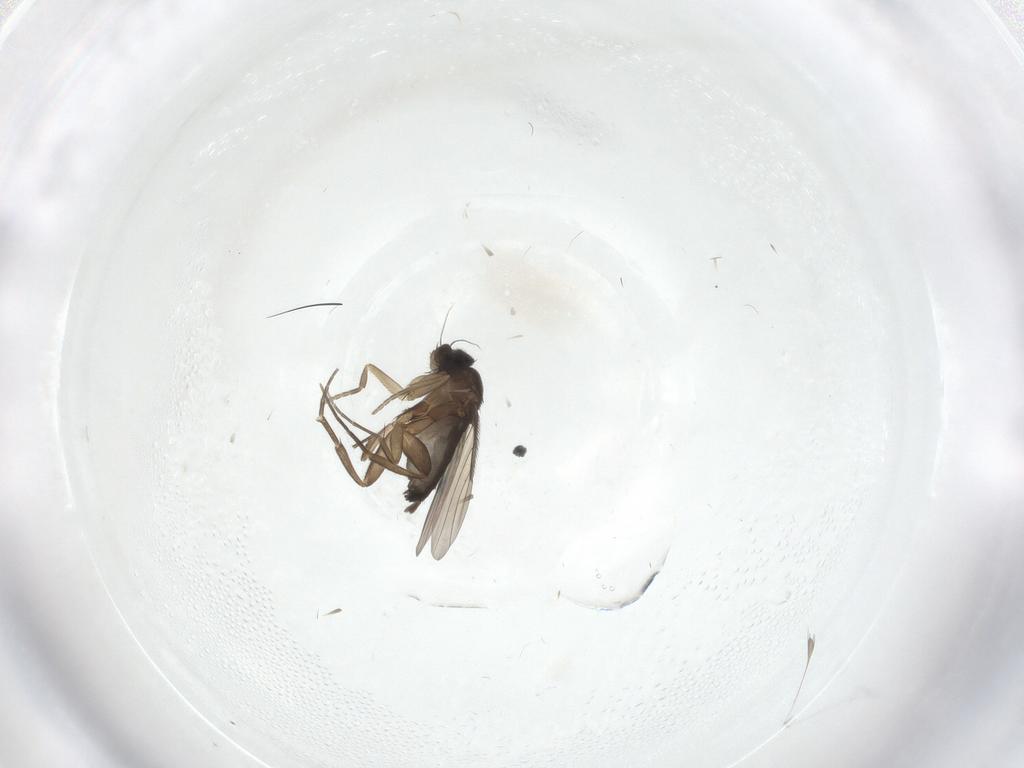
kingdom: Animalia
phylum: Arthropoda
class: Insecta
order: Diptera
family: Phoridae
